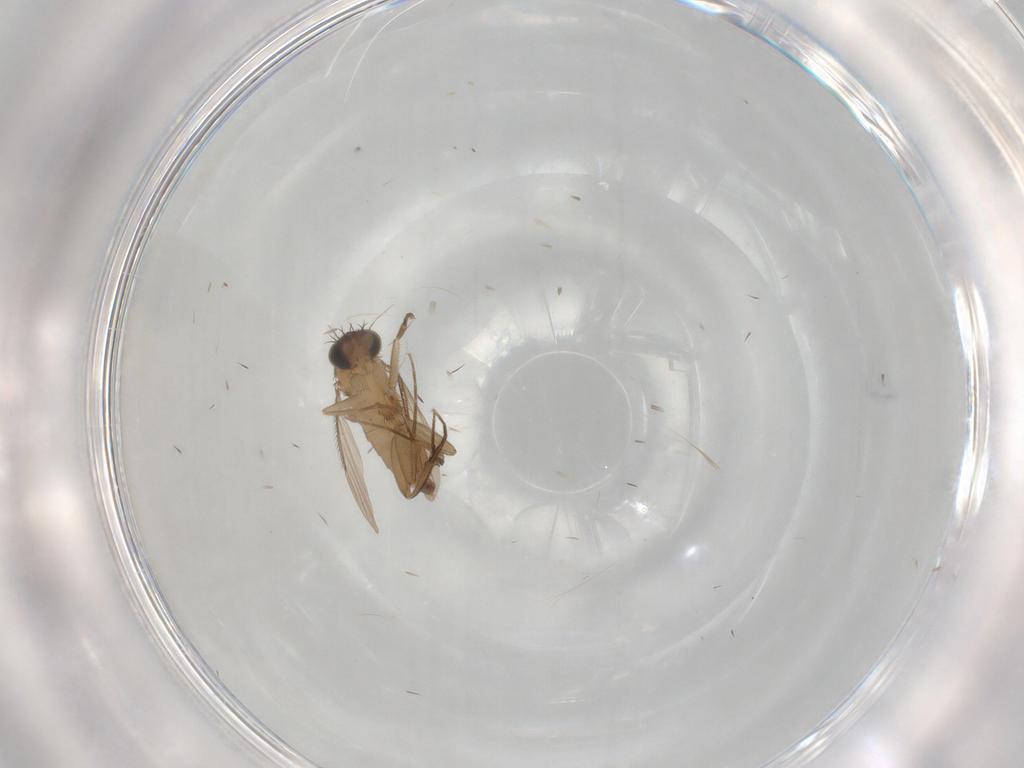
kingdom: Animalia
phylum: Arthropoda
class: Insecta
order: Diptera
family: Phoridae
